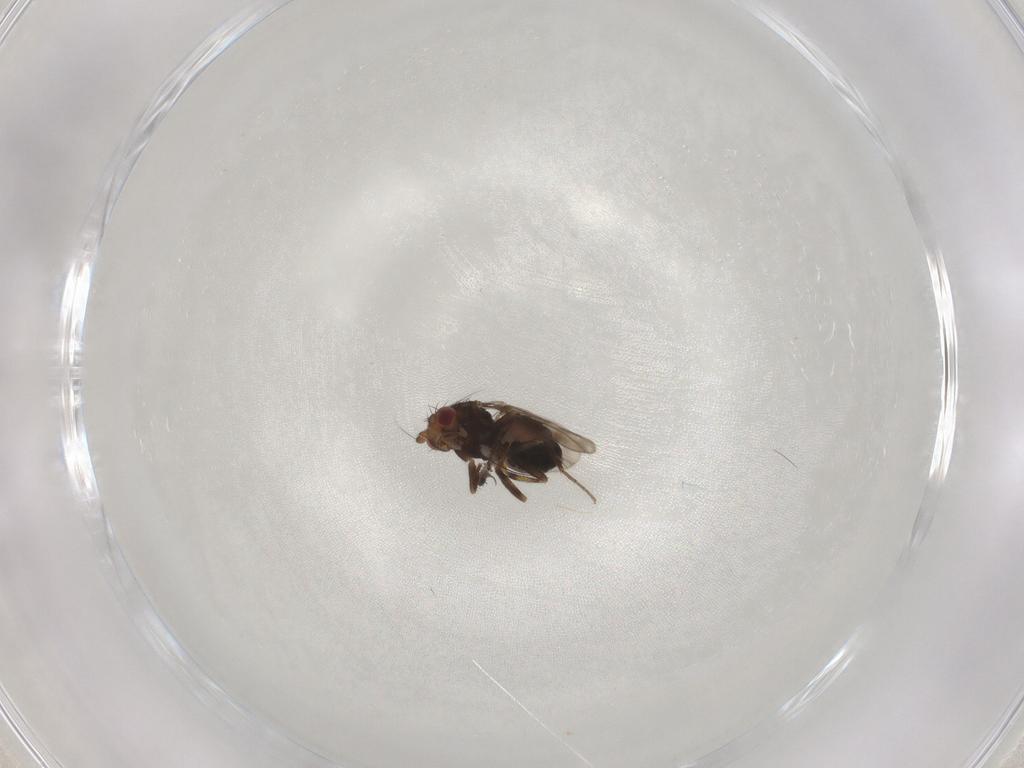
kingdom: Animalia
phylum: Arthropoda
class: Insecta
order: Diptera
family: Sphaeroceridae
